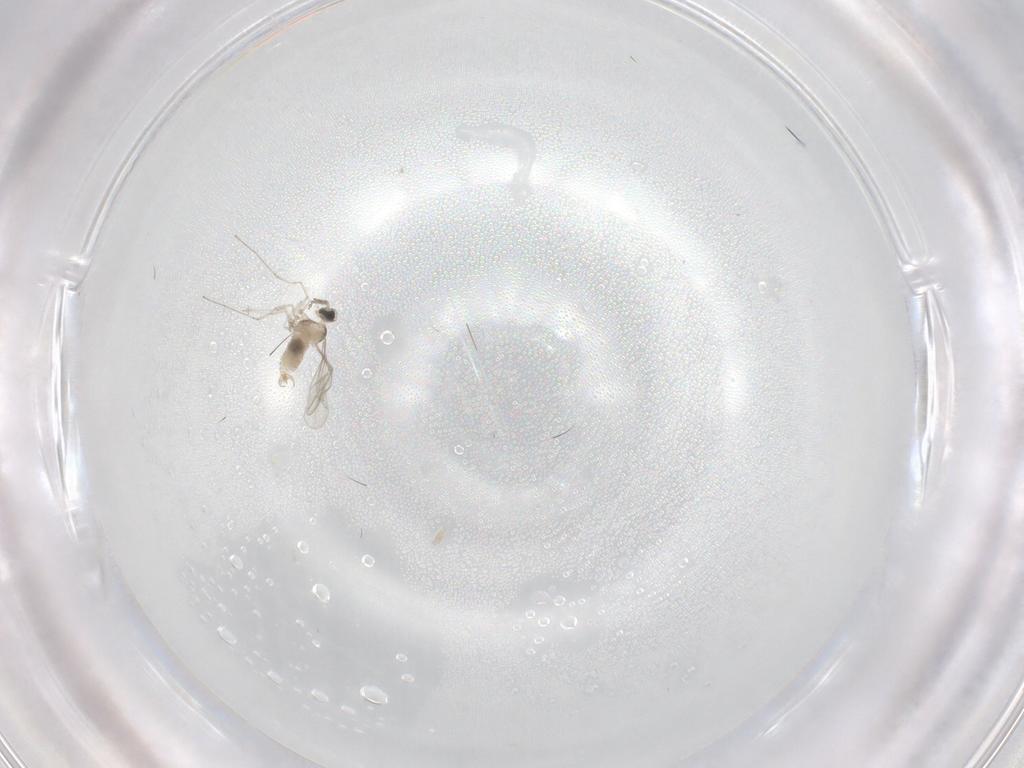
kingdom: Animalia
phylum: Arthropoda
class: Insecta
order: Diptera
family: Cecidomyiidae
